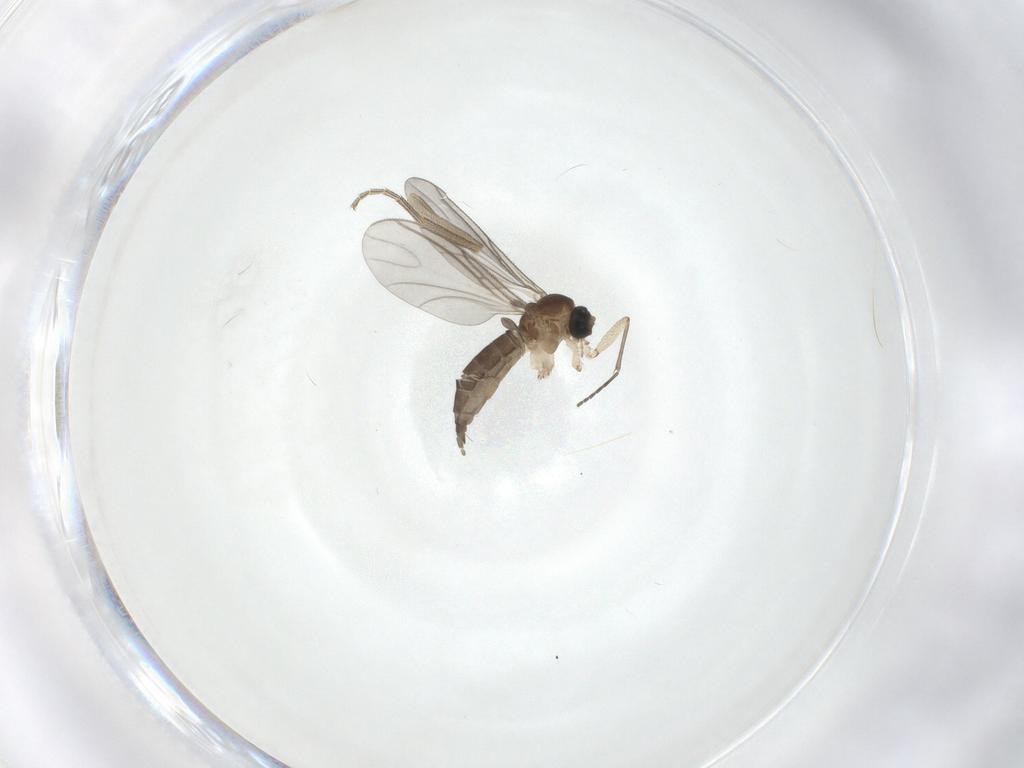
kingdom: Animalia
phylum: Arthropoda
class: Insecta
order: Diptera
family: Sciaridae
